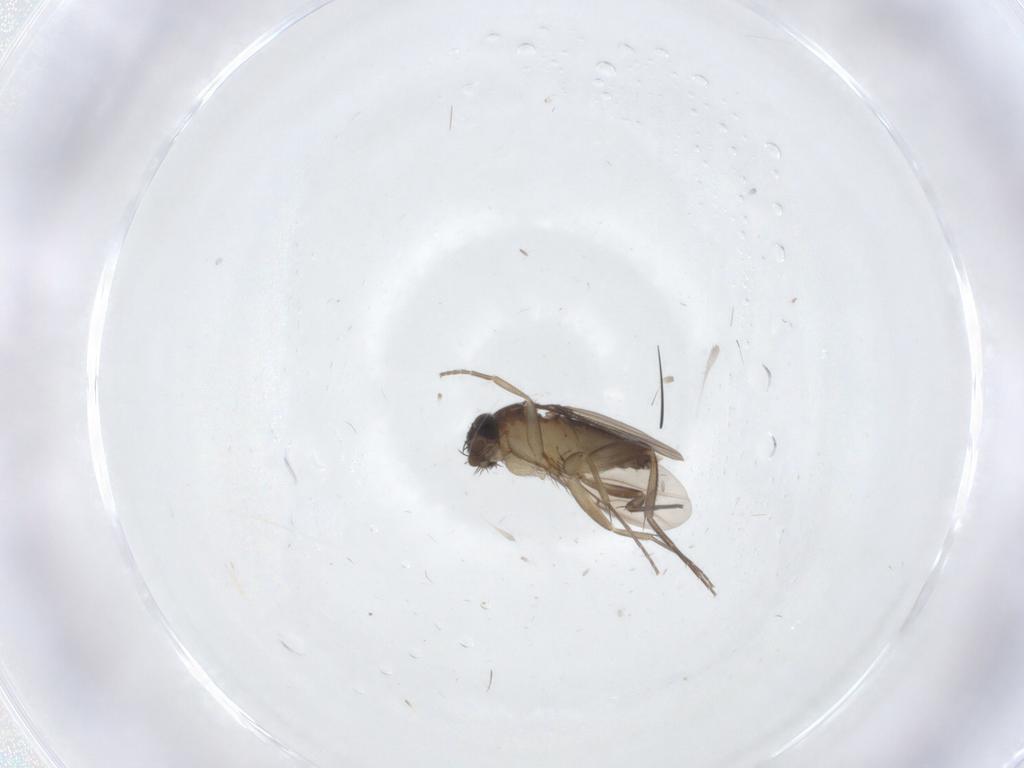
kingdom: Animalia
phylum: Arthropoda
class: Insecta
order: Diptera
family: Phoridae
